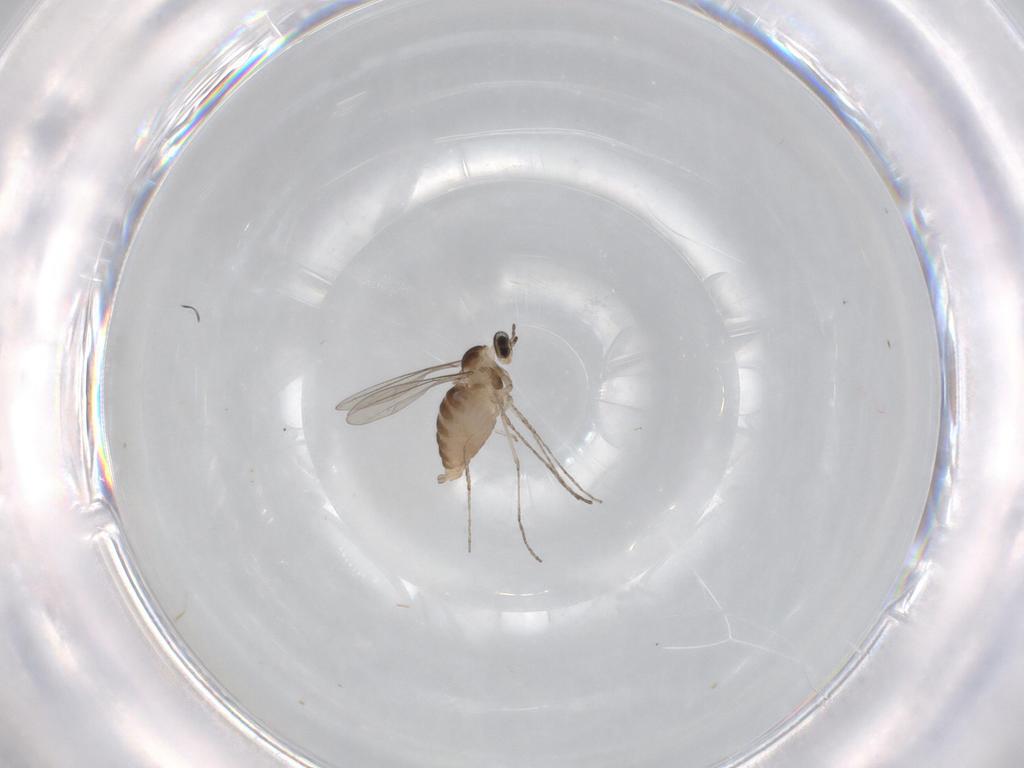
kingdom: Animalia
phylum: Arthropoda
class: Insecta
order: Diptera
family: Cecidomyiidae
